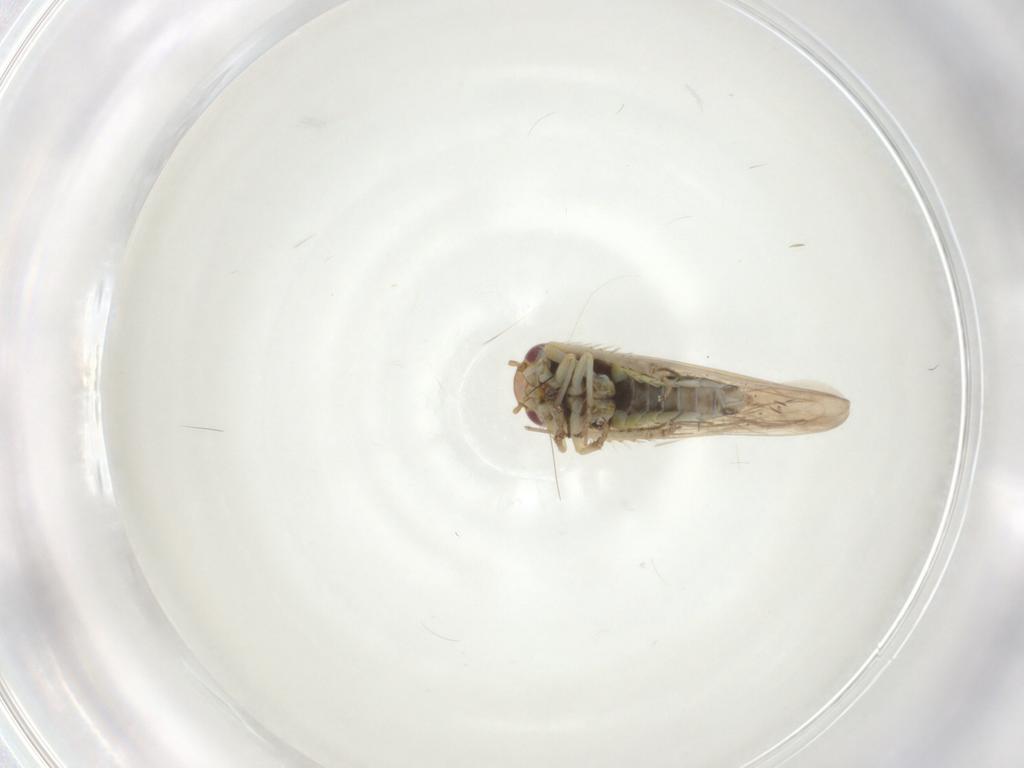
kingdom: Animalia
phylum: Arthropoda
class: Insecta
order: Hemiptera
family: Cicadellidae
